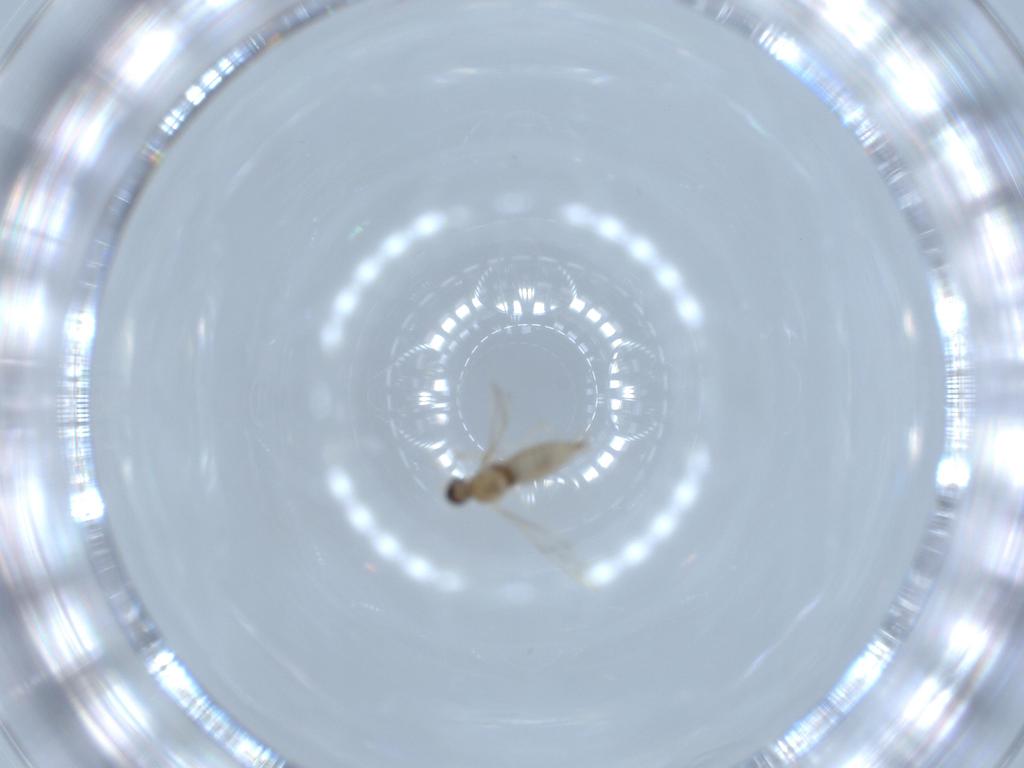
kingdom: Animalia
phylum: Arthropoda
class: Insecta
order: Diptera
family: Cecidomyiidae
